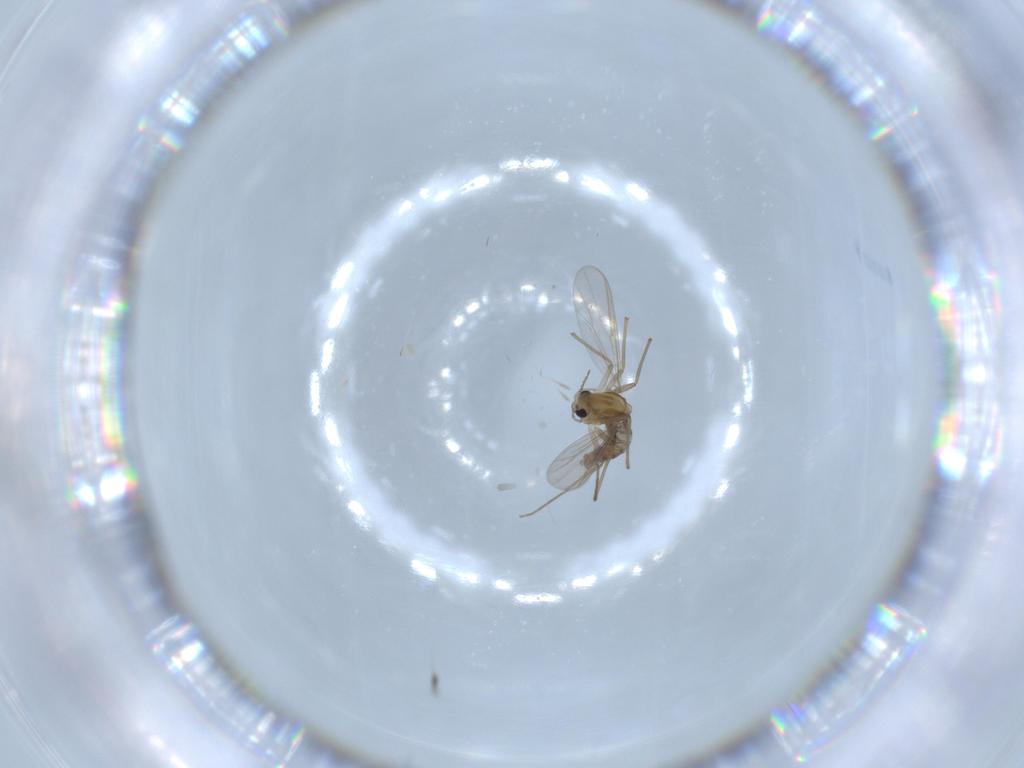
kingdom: Animalia
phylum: Arthropoda
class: Insecta
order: Diptera
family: Chironomidae
